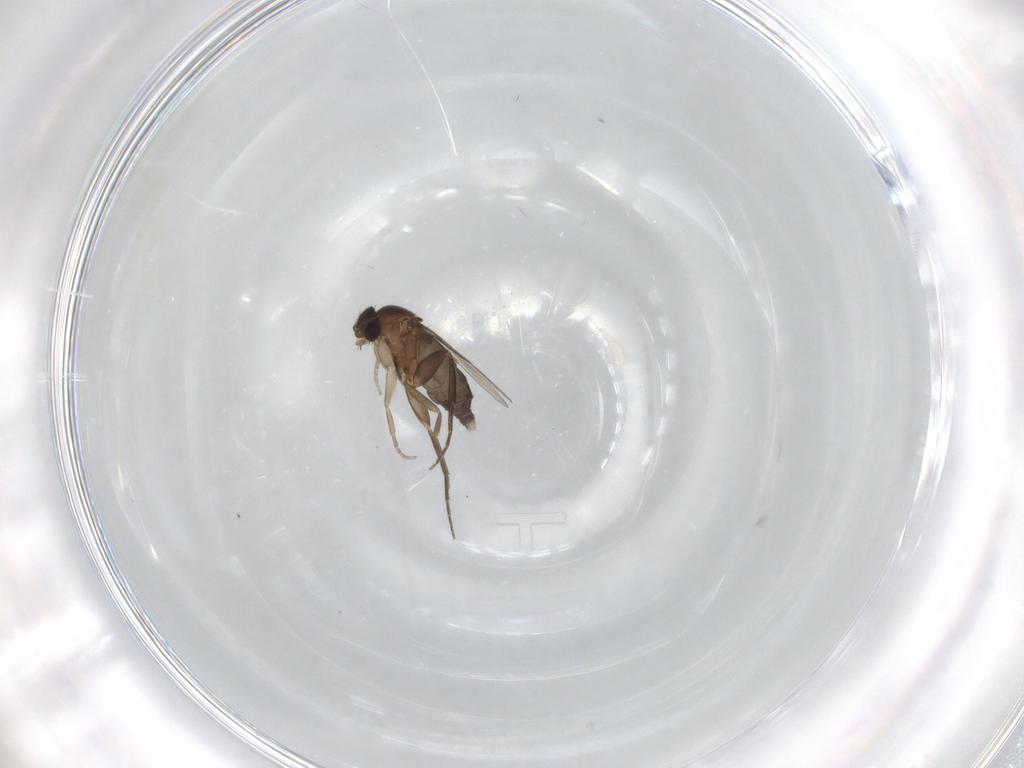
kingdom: Animalia
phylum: Arthropoda
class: Insecta
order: Diptera
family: Phoridae
